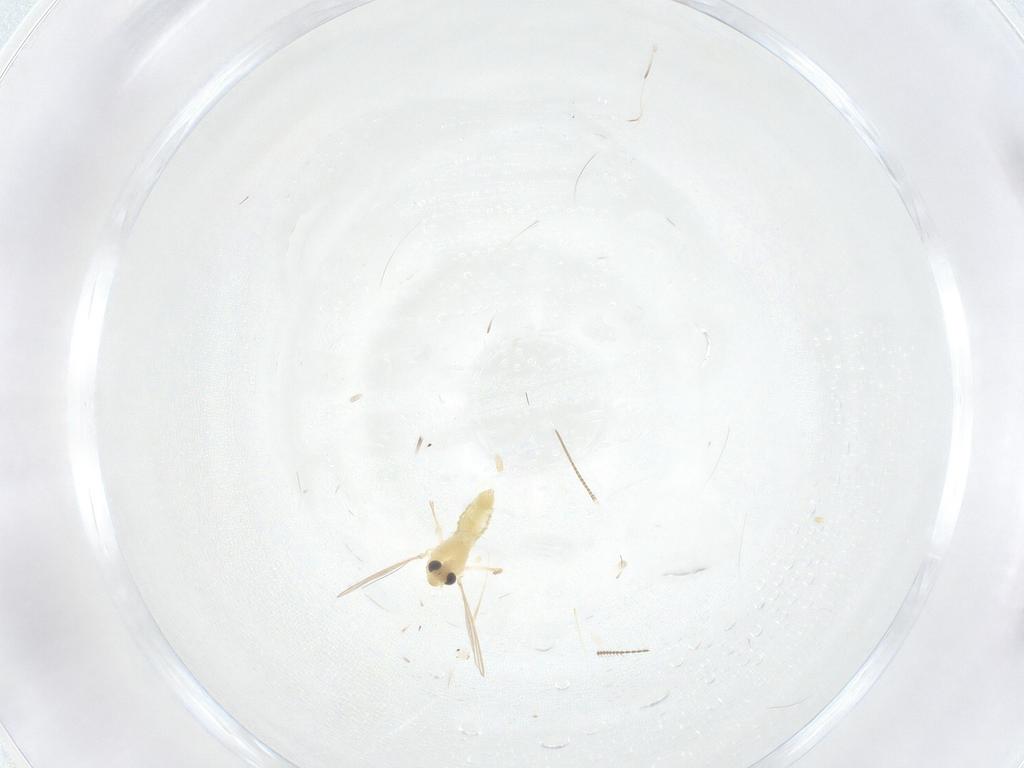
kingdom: Animalia
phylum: Arthropoda
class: Insecta
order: Diptera
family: Chironomidae
